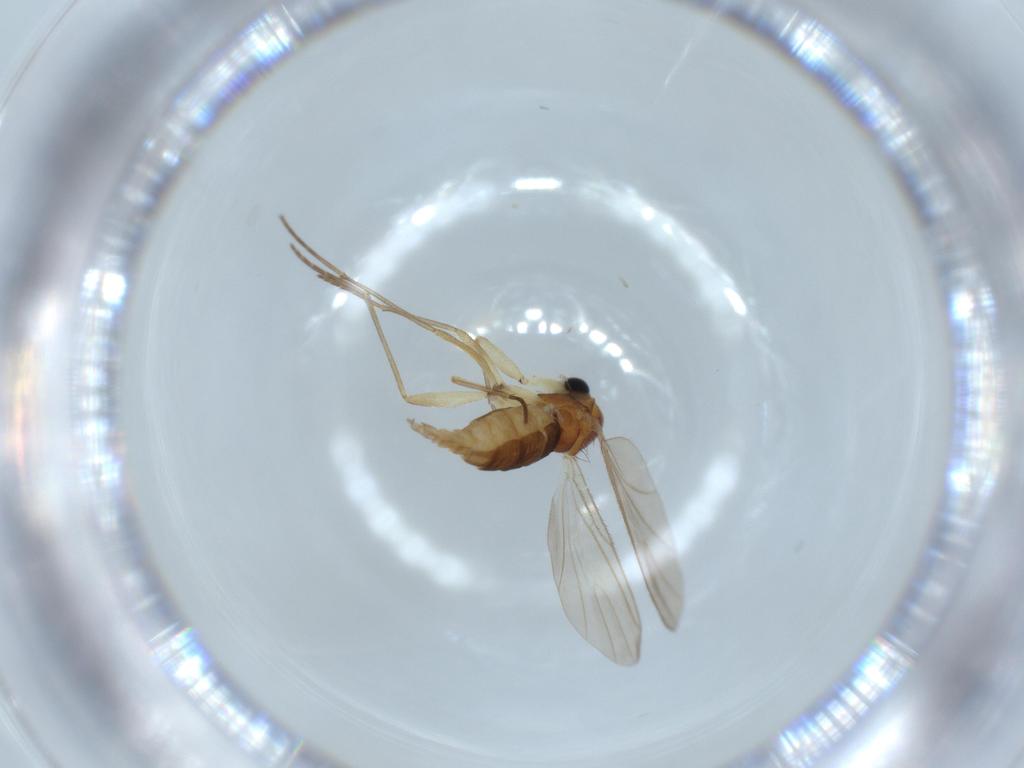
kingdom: Animalia
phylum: Arthropoda
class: Insecta
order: Diptera
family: Sciaridae
